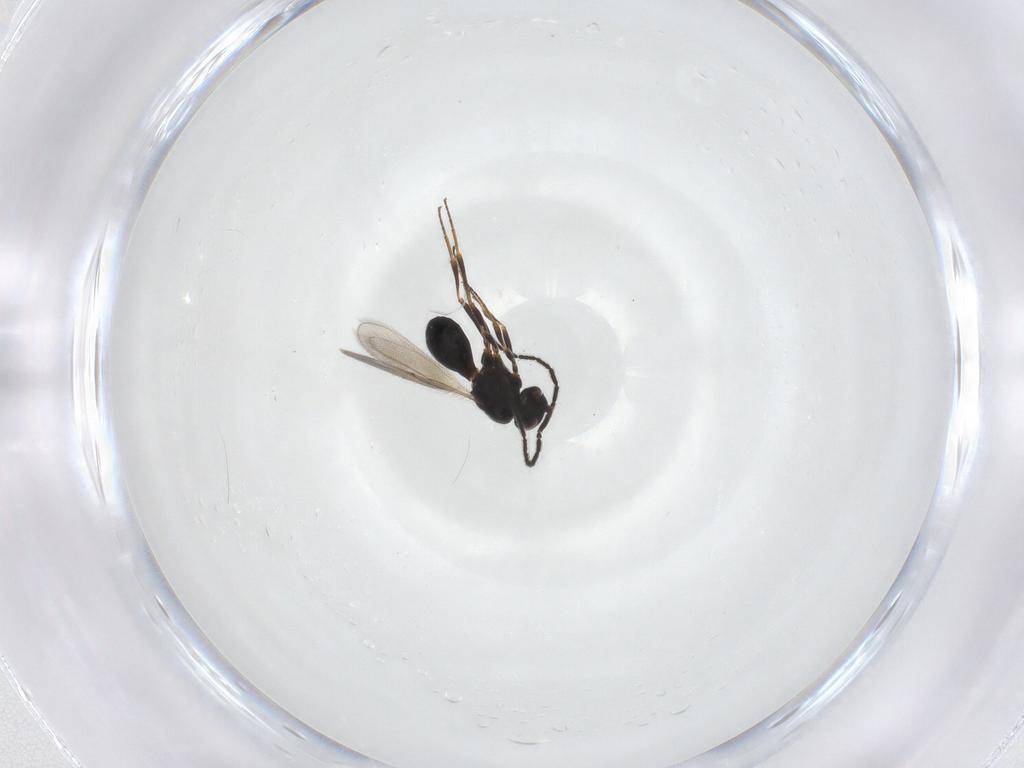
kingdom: Animalia
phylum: Arthropoda
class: Insecta
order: Hymenoptera
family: Scelionidae
